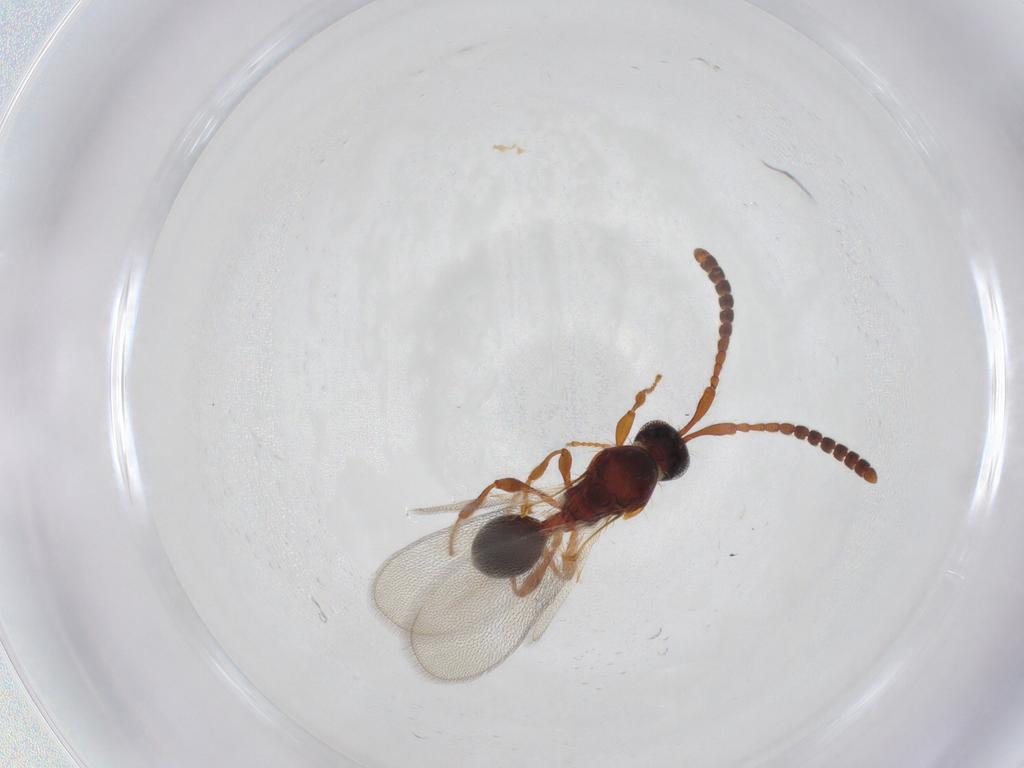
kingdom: Animalia
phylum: Arthropoda
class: Insecta
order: Hymenoptera
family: Diapriidae
